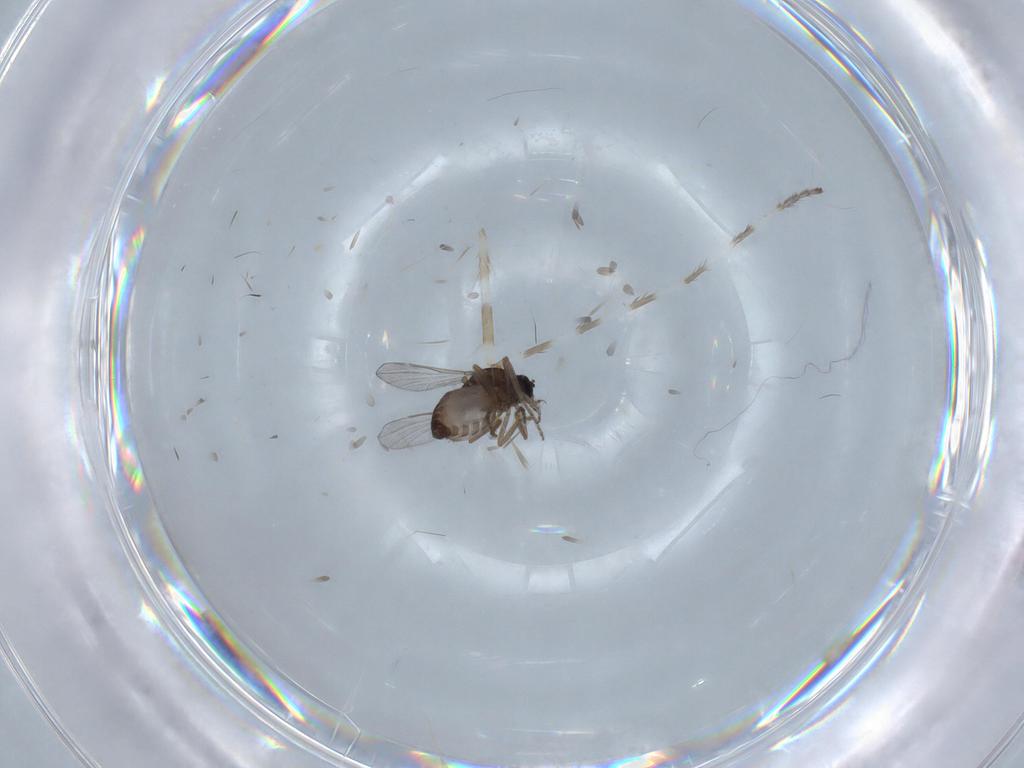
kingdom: Animalia
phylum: Arthropoda
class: Insecta
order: Diptera
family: Ceratopogonidae
